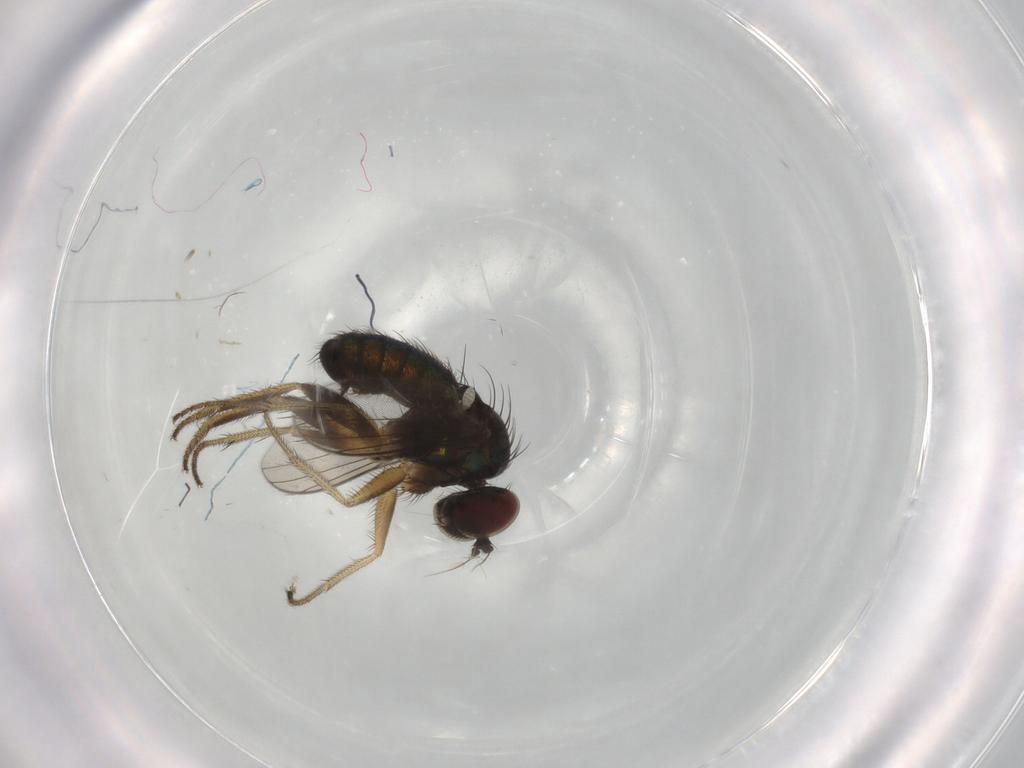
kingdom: Animalia
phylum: Arthropoda
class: Insecta
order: Diptera
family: Dolichopodidae
